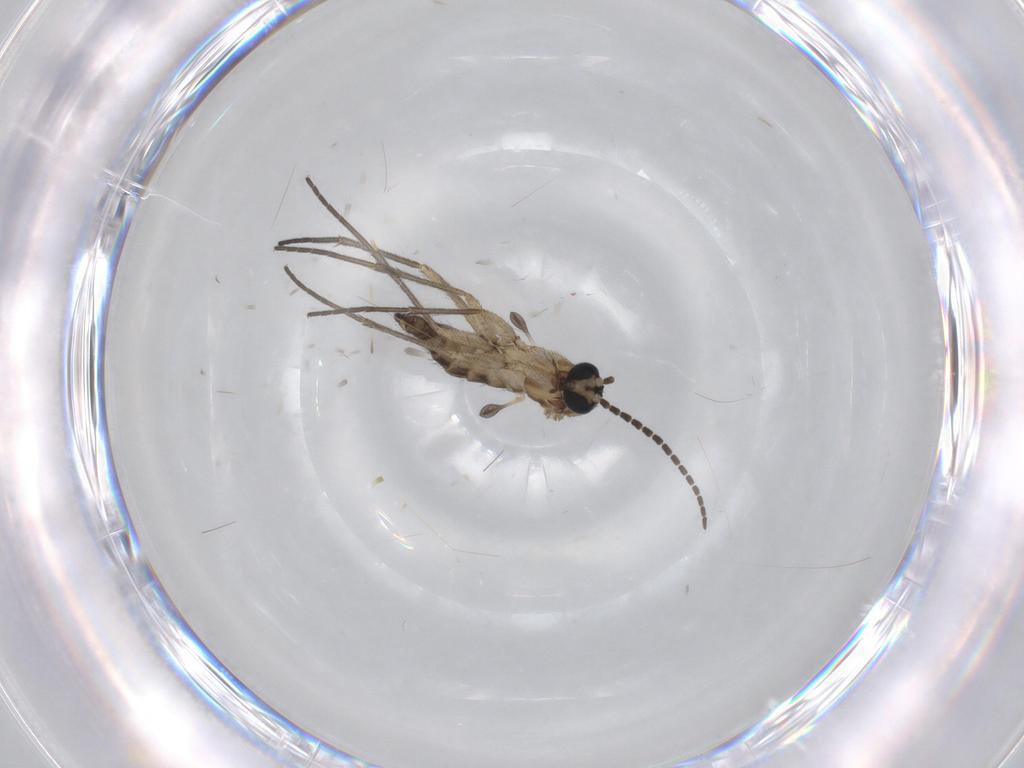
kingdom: Animalia
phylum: Arthropoda
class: Insecta
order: Diptera
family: Sciaridae
